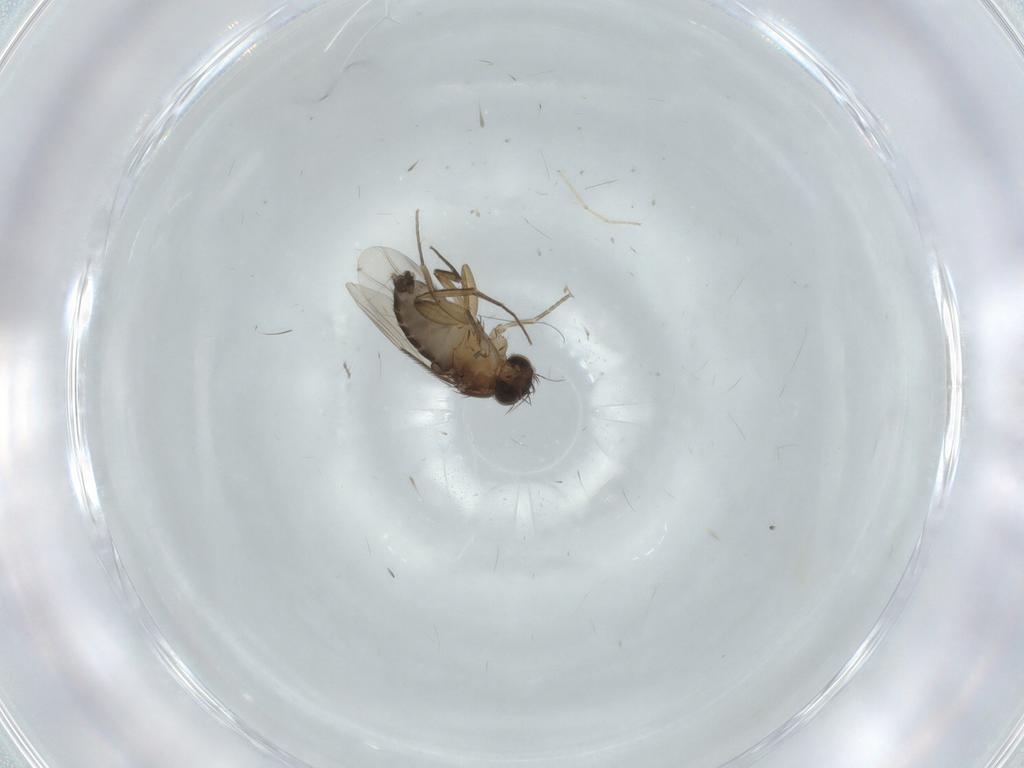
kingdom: Animalia
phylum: Arthropoda
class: Insecta
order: Diptera
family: Phoridae
